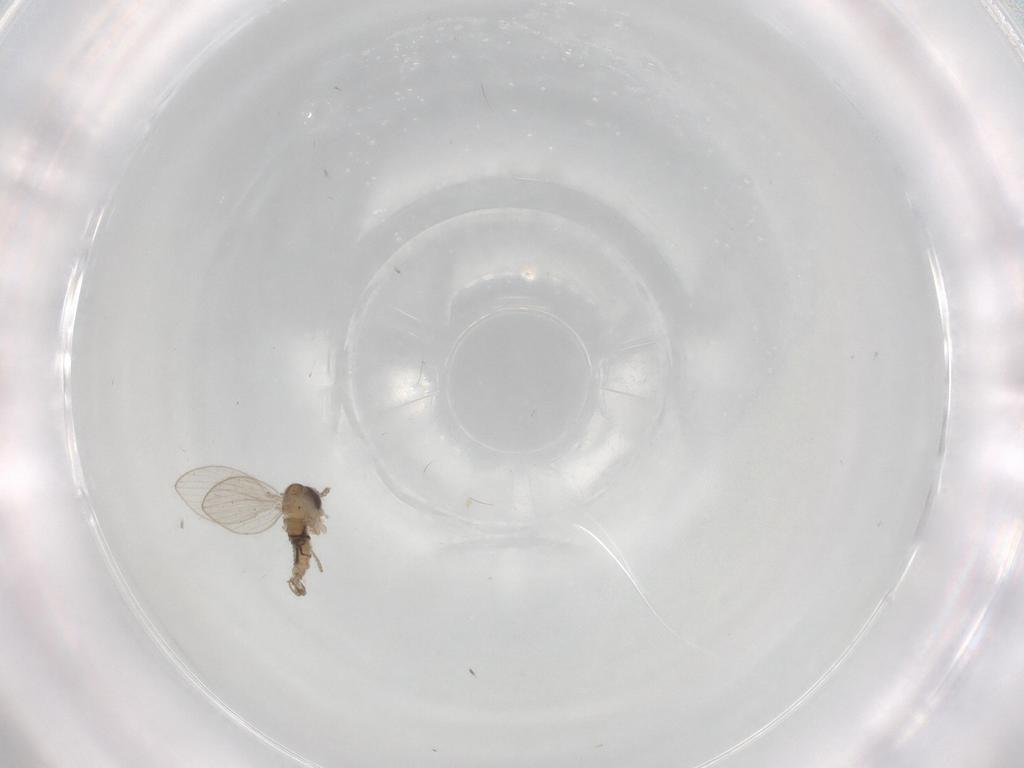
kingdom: Animalia
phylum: Arthropoda
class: Insecta
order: Diptera
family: Psychodidae
